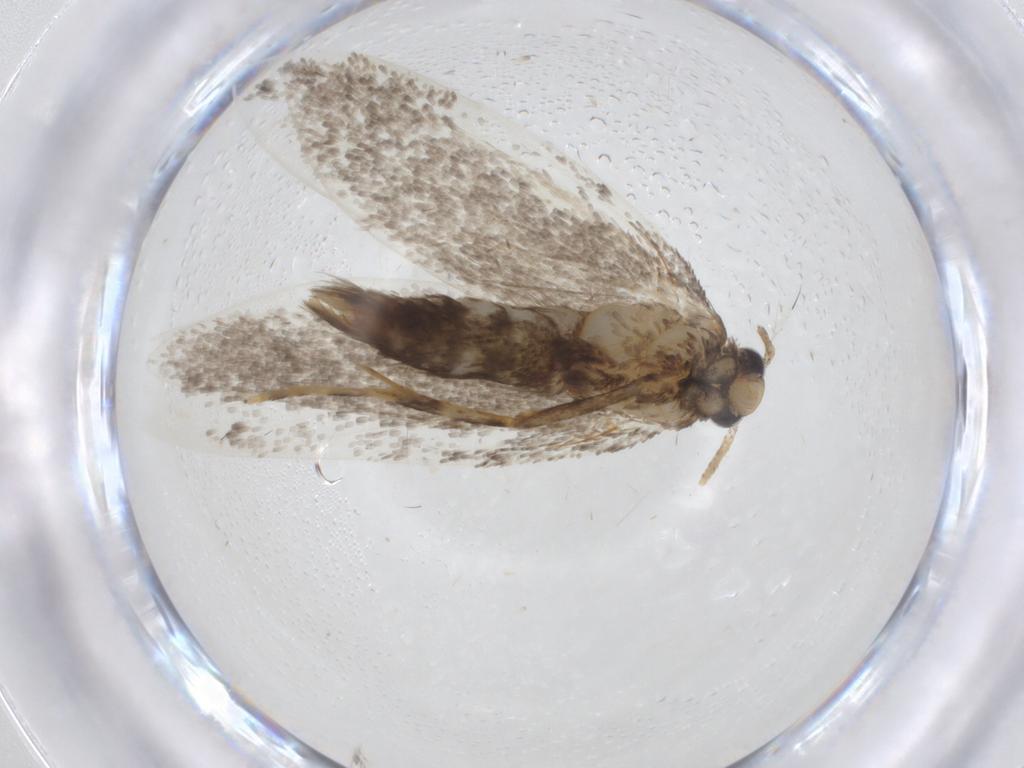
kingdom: Animalia
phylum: Arthropoda
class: Insecta
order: Lepidoptera
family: Autostichidae
